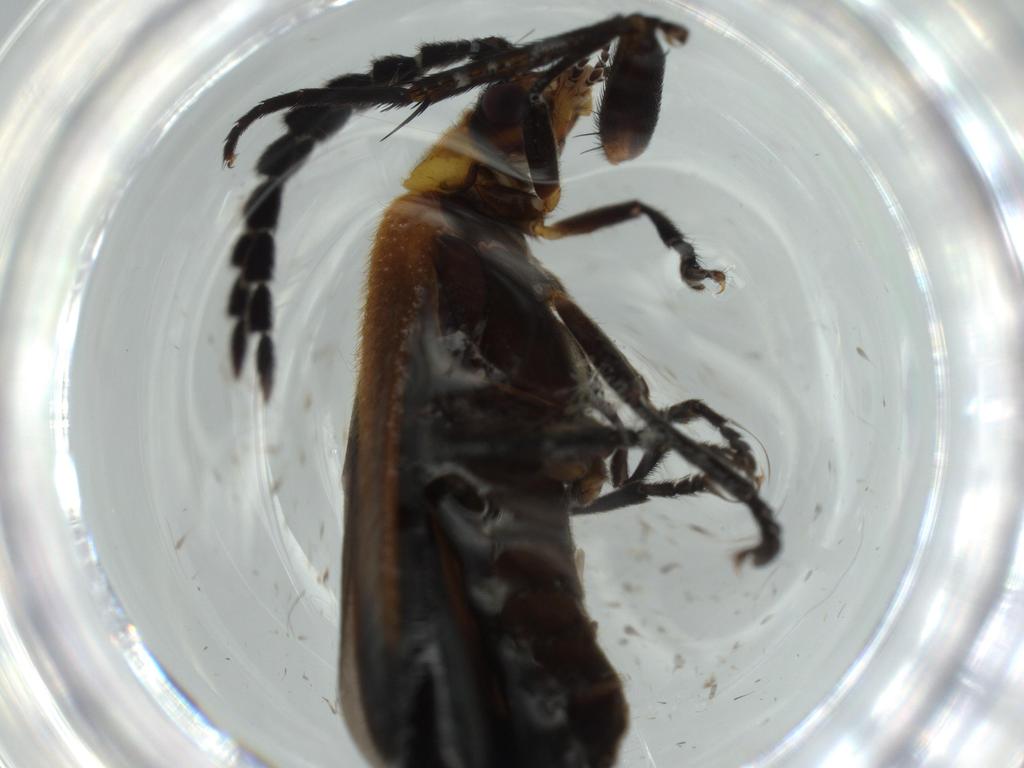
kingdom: Animalia
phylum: Arthropoda
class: Insecta
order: Coleoptera
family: Cantharidae
